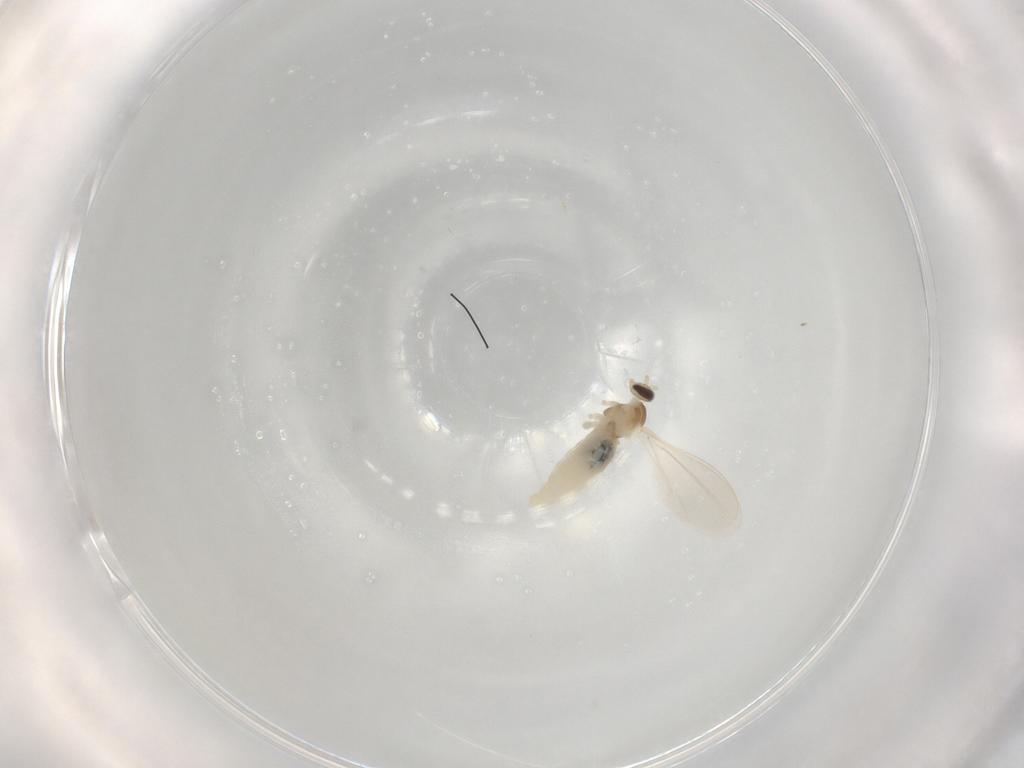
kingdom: Animalia
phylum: Arthropoda
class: Insecta
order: Diptera
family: Cecidomyiidae
